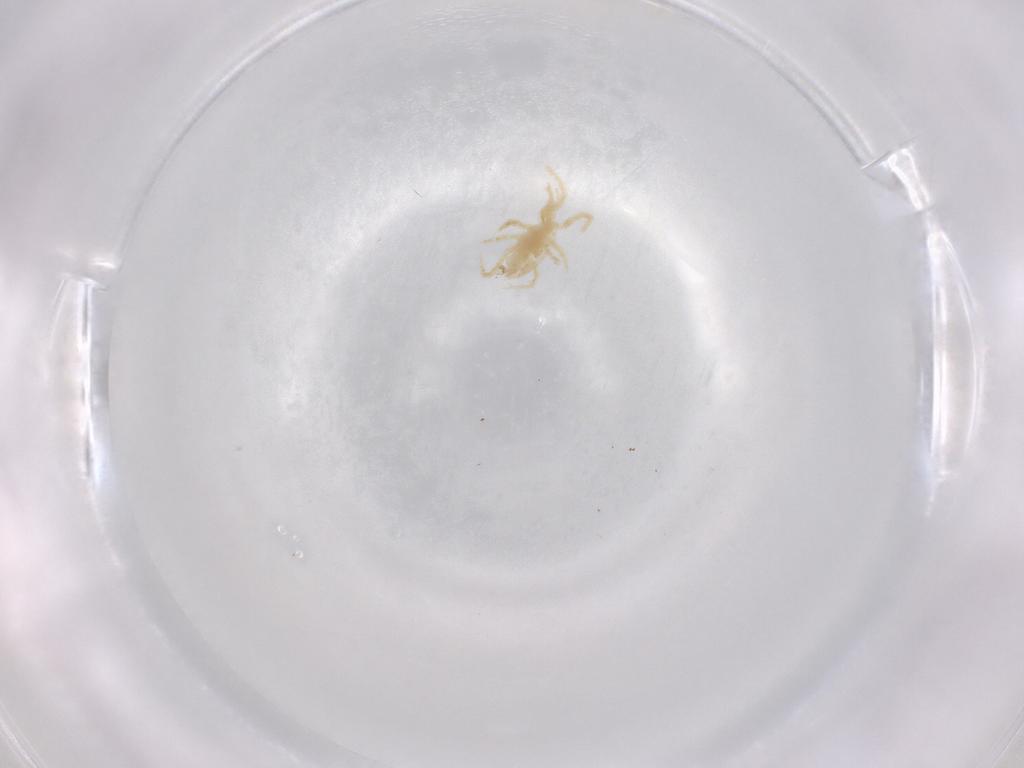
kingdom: Animalia
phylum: Arthropoda
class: Arachnida
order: Mesostigmata
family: Parasitidae
